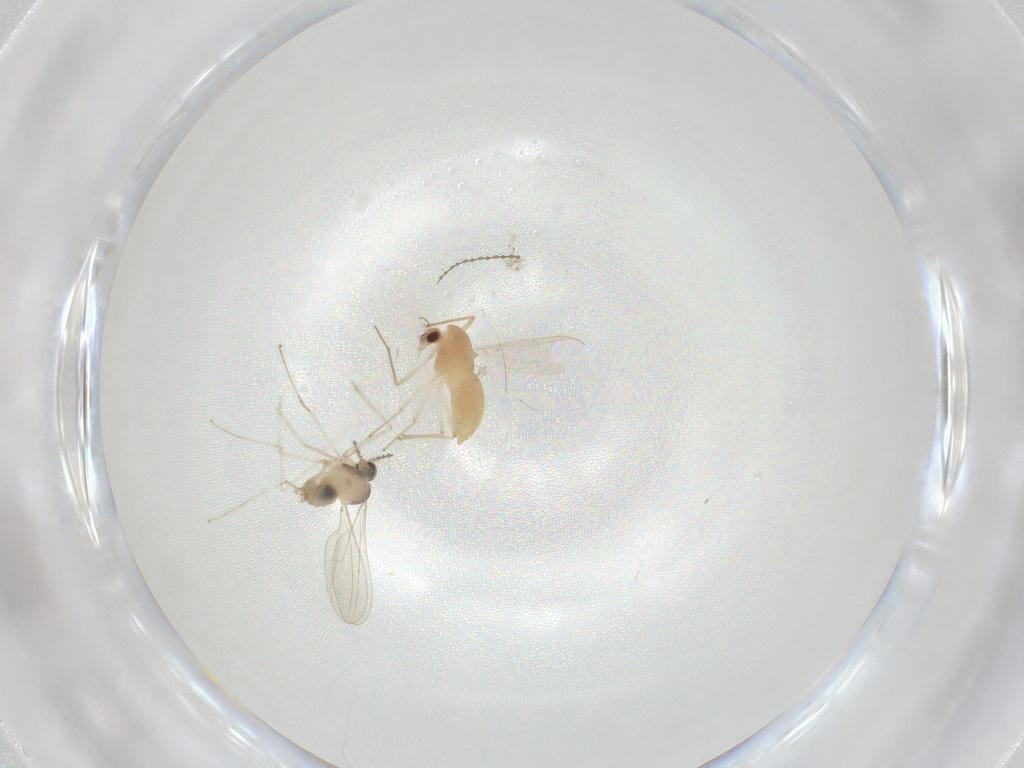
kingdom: Animalia
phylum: Arthropoda
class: Insecta
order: Diptera
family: Cecidomyiidae
